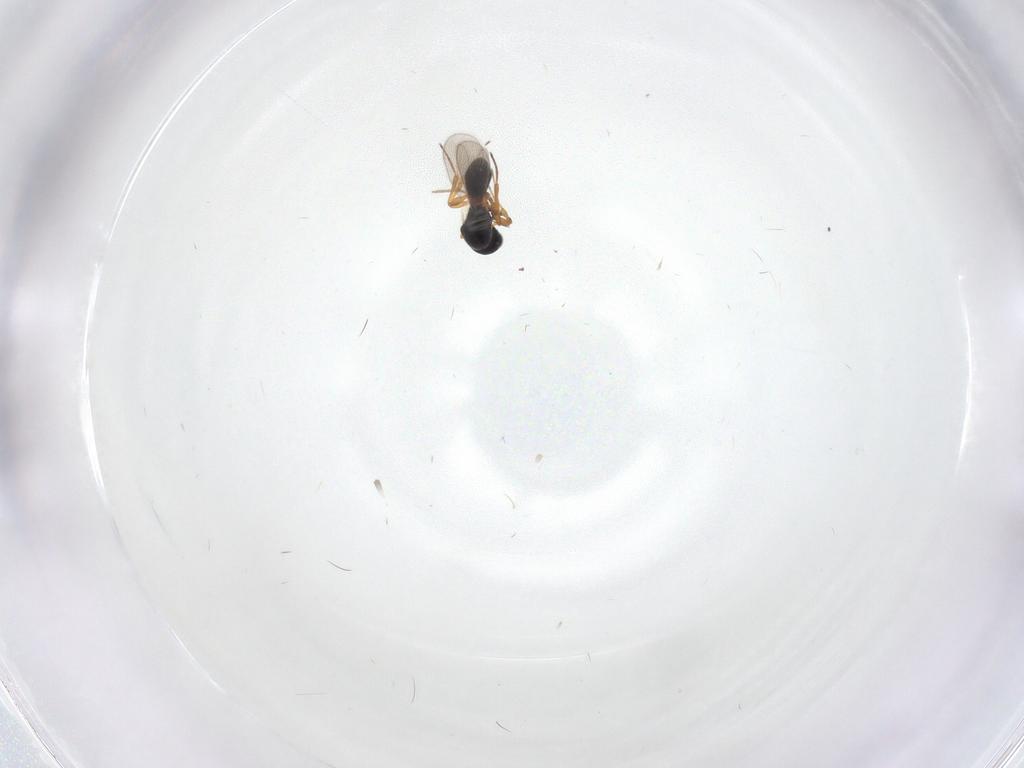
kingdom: Animalia
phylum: Arthropoda
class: Insecta
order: Hymenoptera
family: Platygastridae
